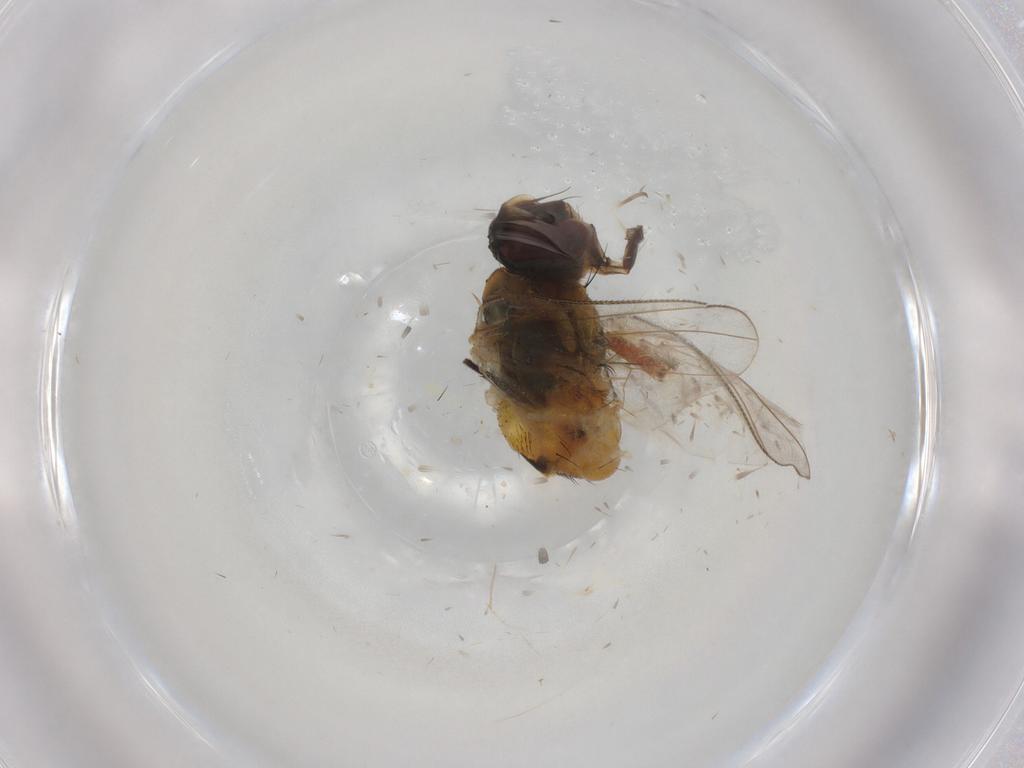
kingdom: Animalia
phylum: Arthropoda
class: Insecta
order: Diptera
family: Muscidae
